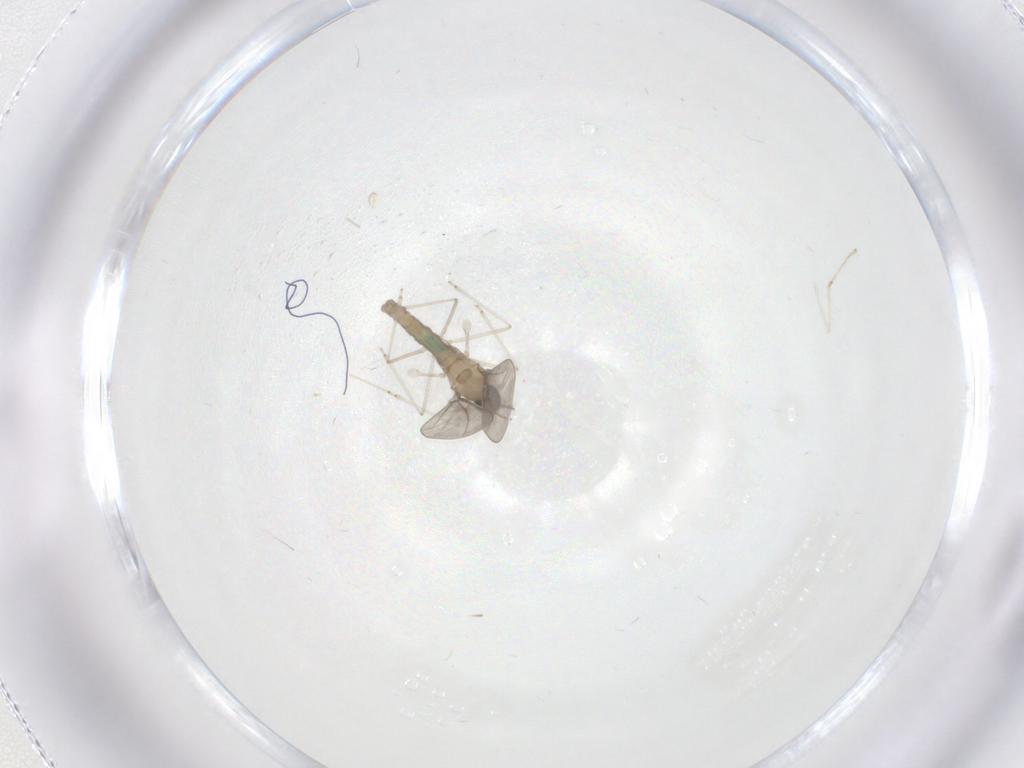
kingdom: Animalia
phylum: Arthropoda
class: Insecta
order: Diptera
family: Cecidomyiidae
